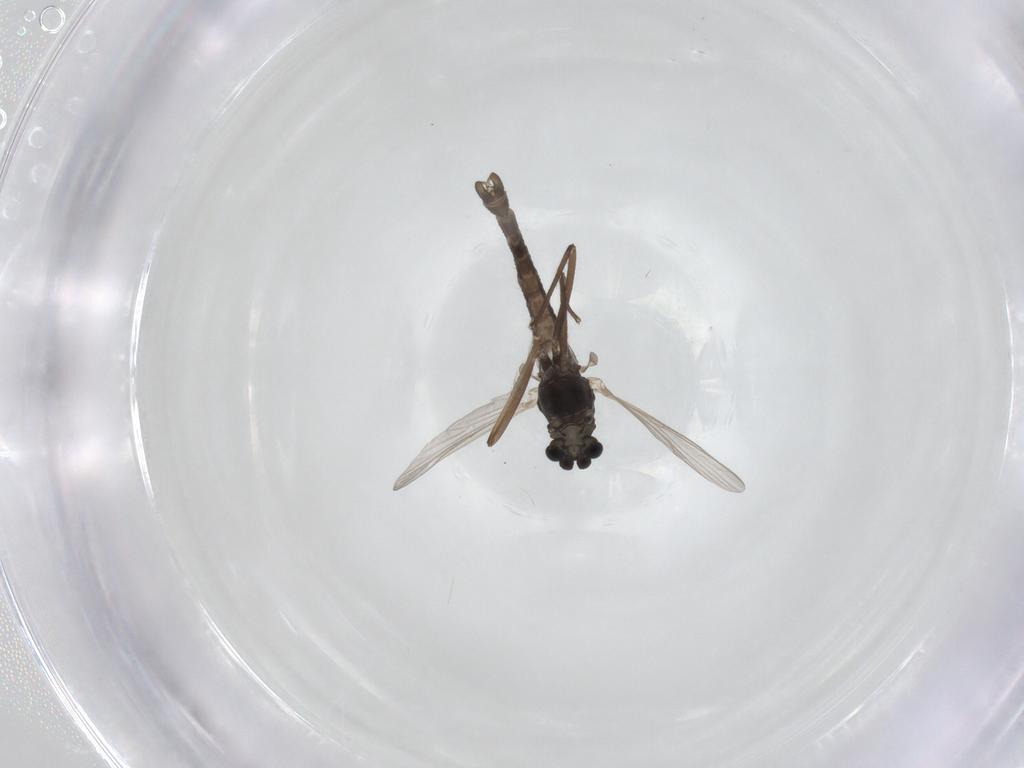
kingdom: Animalia
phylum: Arthropoda
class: Insecta
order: Diptera
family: Chironomidae
